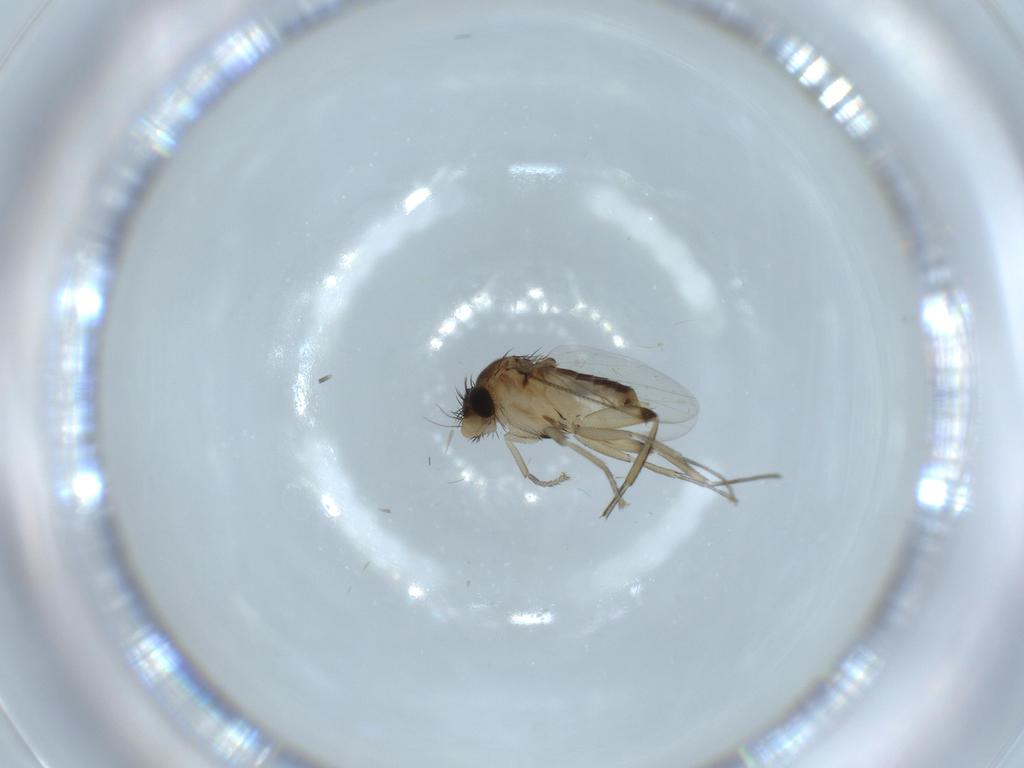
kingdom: Animalia
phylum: Arthropoda
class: Insecta
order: Diptera
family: Phoridae
